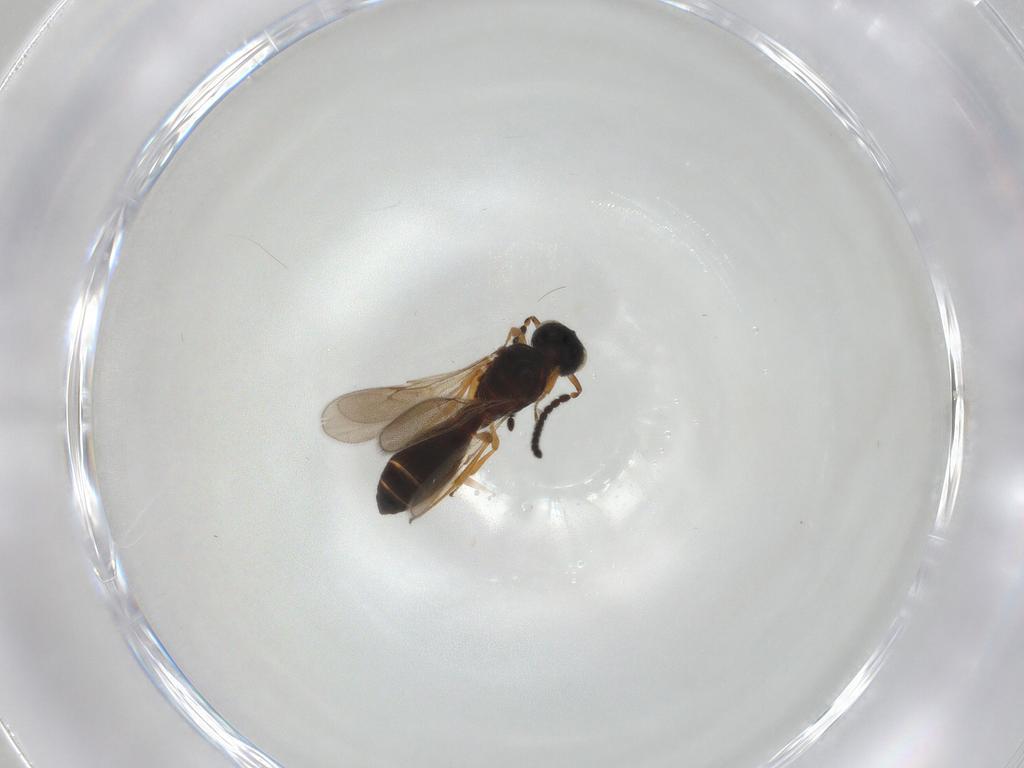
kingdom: Animalia
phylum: Arthropoda
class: Insecta
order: Hymenoptera
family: Scelionidae
